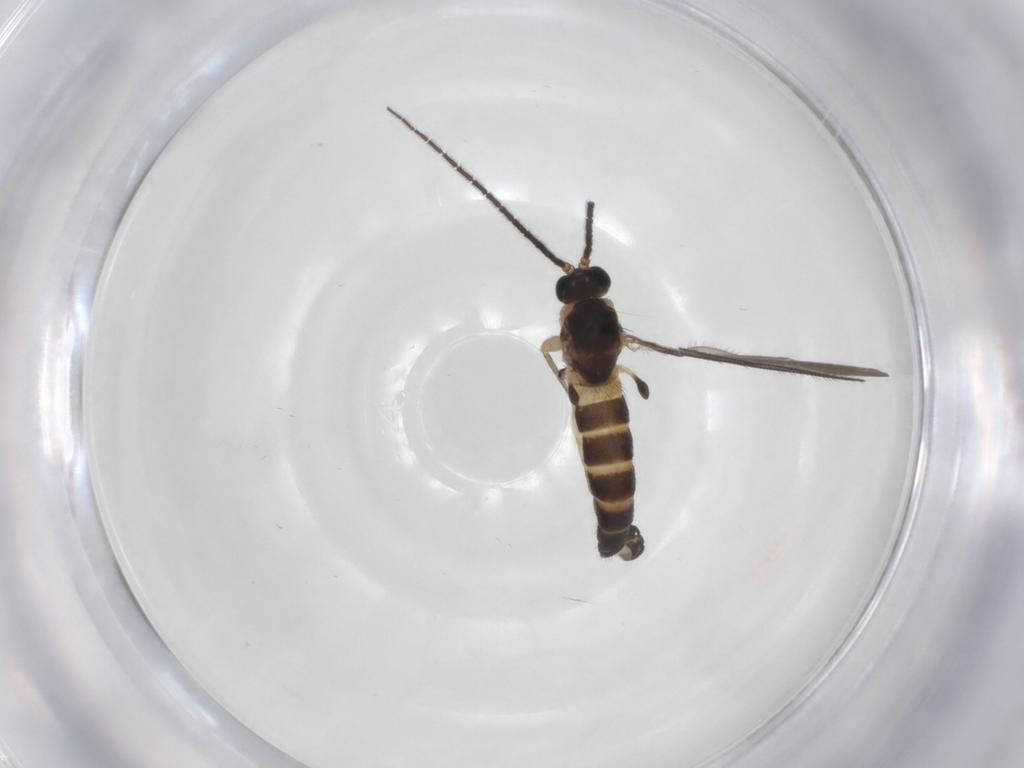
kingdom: Animalia
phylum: Arthropoda
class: Insecta
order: Diptera
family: Sciaridae
